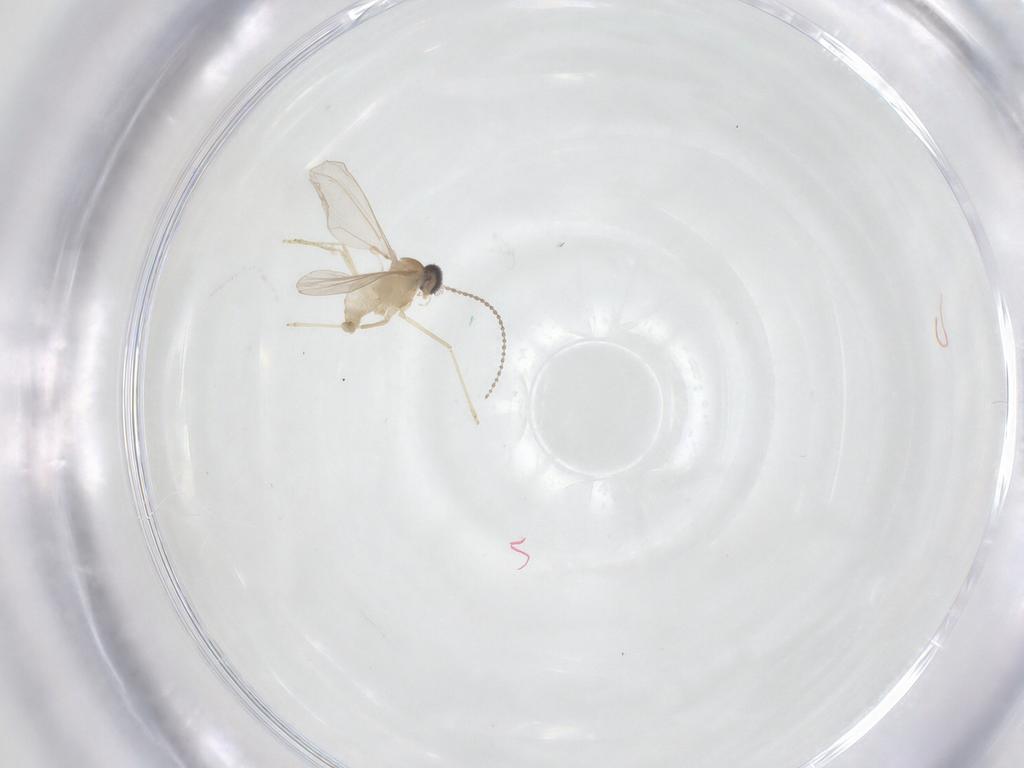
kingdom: Animalia
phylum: Arthropoda
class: Insecta
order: Diptera
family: Cecidomyiidae
